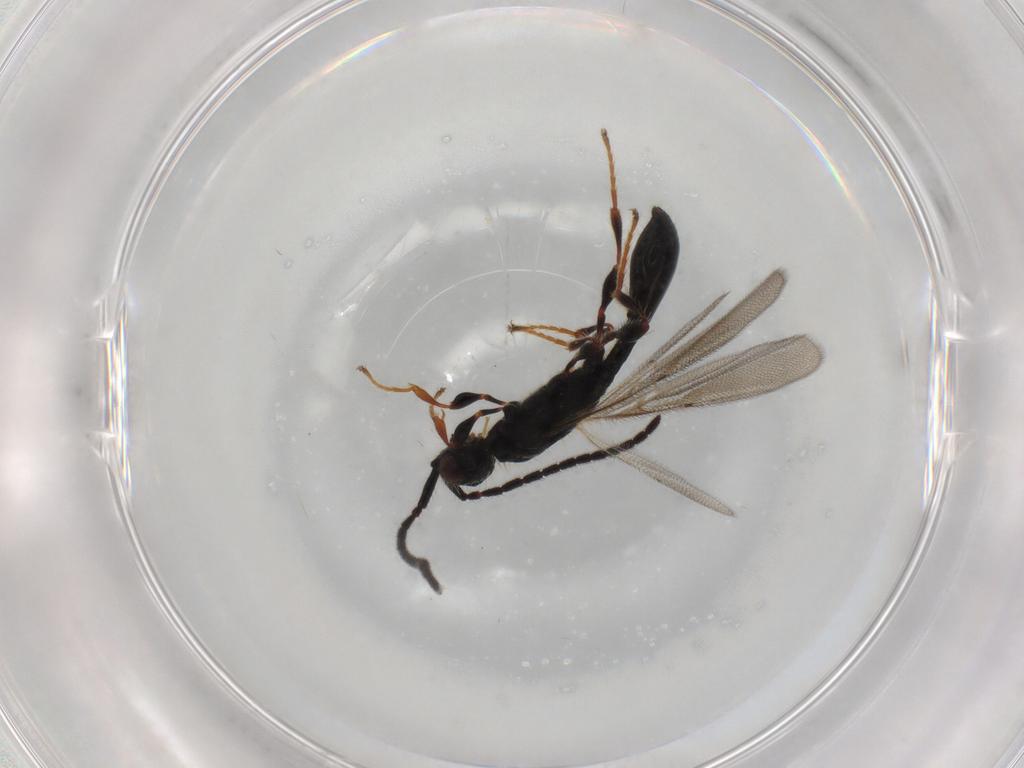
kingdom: Animalia
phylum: Arthropoda
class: Insecta
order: Hymenoptera
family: Diapriidae
